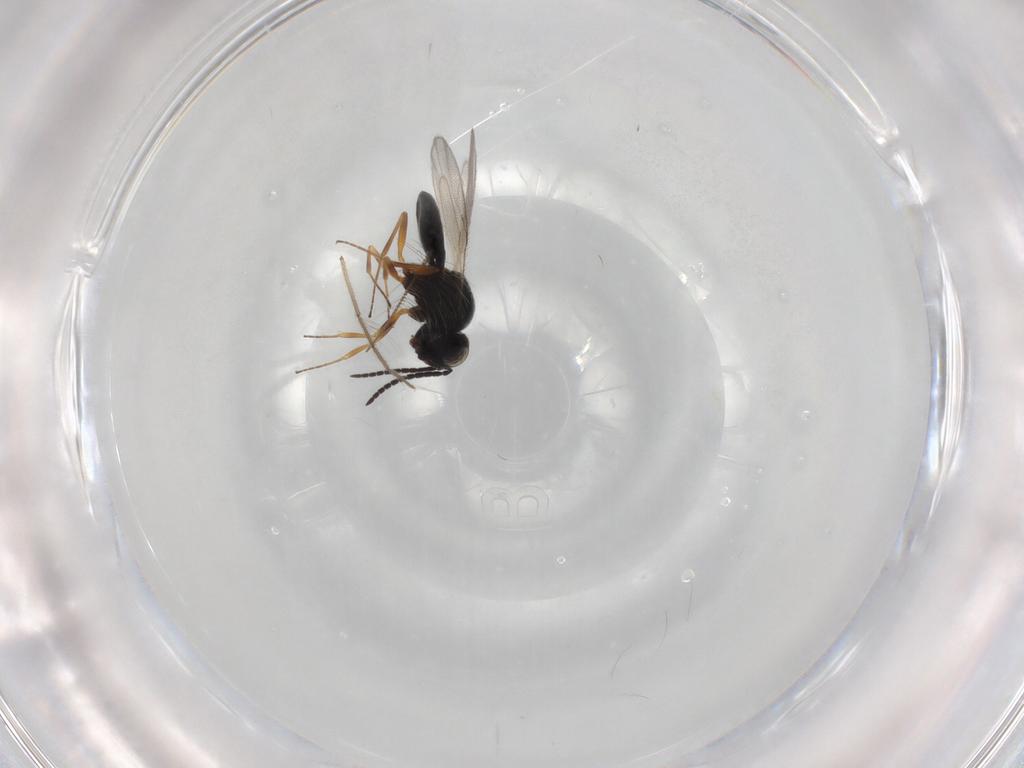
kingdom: Animalia
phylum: Arthropoda
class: Insecta
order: Hymenoptera
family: Scelionidae
